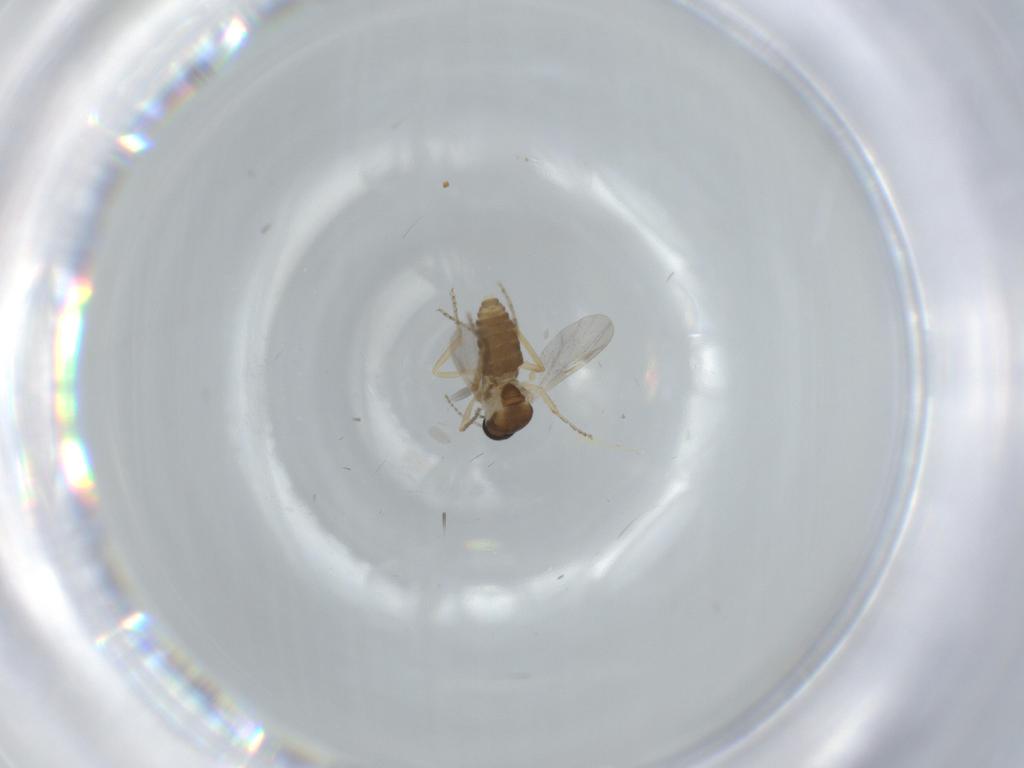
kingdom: Animalia
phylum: Arthropoda
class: Insecta
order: Diptera
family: Ceratopogonidae
